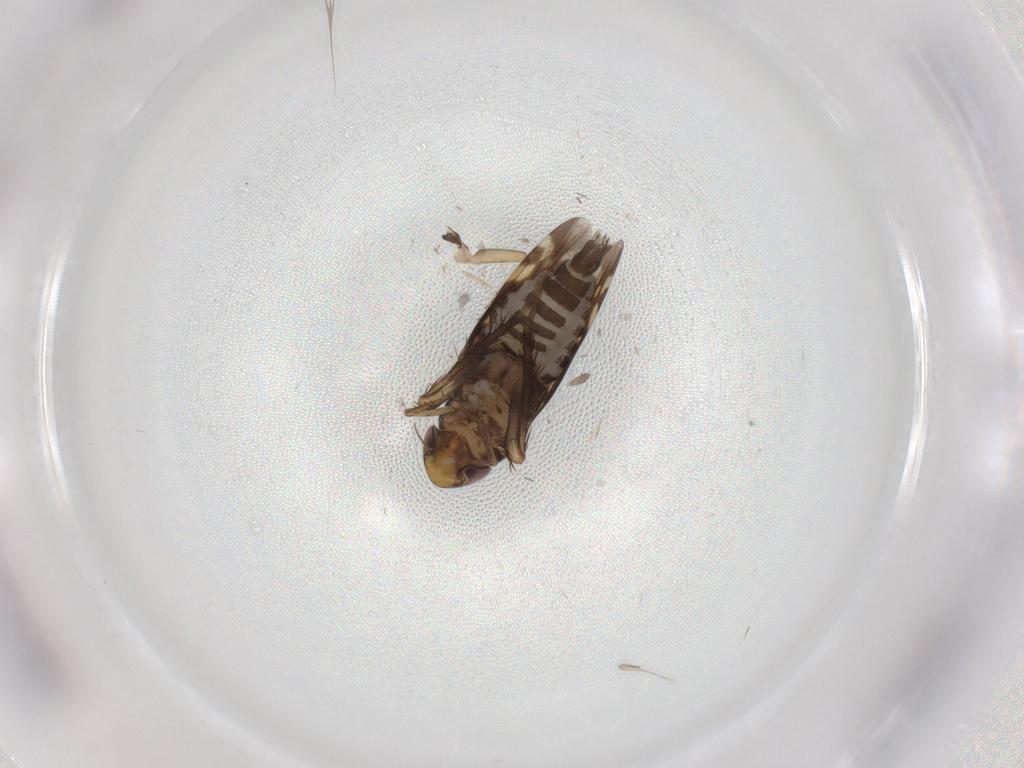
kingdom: Animalia
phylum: Arthropoda
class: Insecta
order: Hemiptera
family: Cicadellidae
